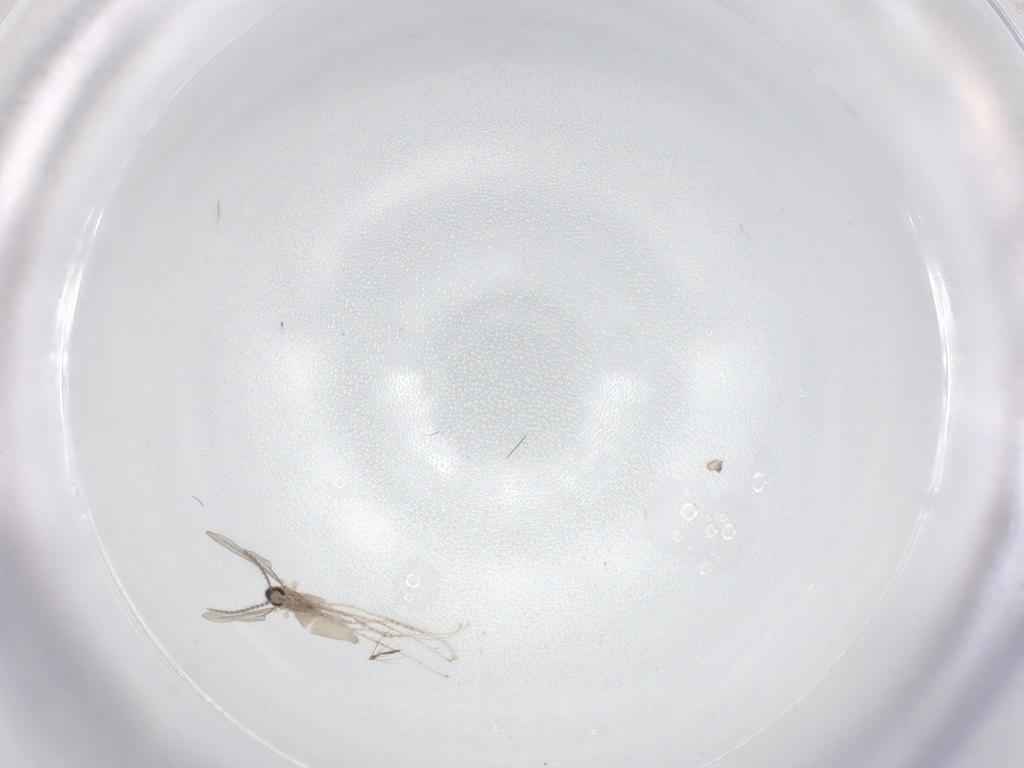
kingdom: Animalia
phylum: Arthropoda
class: Insecta
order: Diptera
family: Cecidomyiidae
